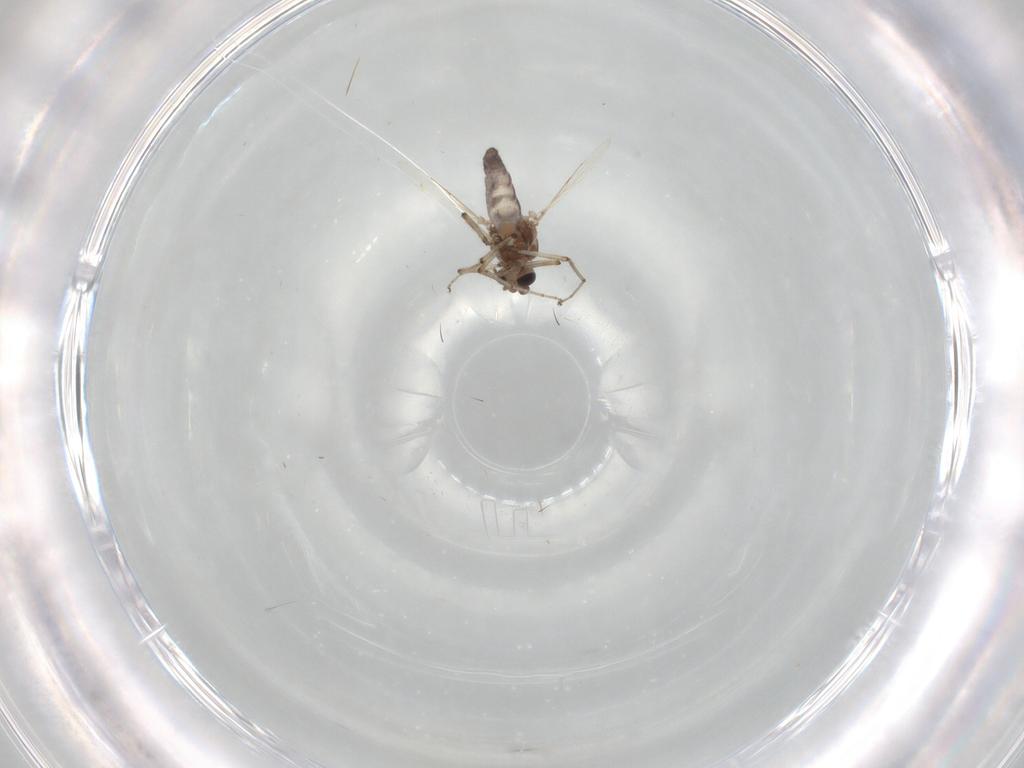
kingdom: Animalia
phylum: Arthropoda
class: Insecta
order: Diptera
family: Ceratopogonidae
